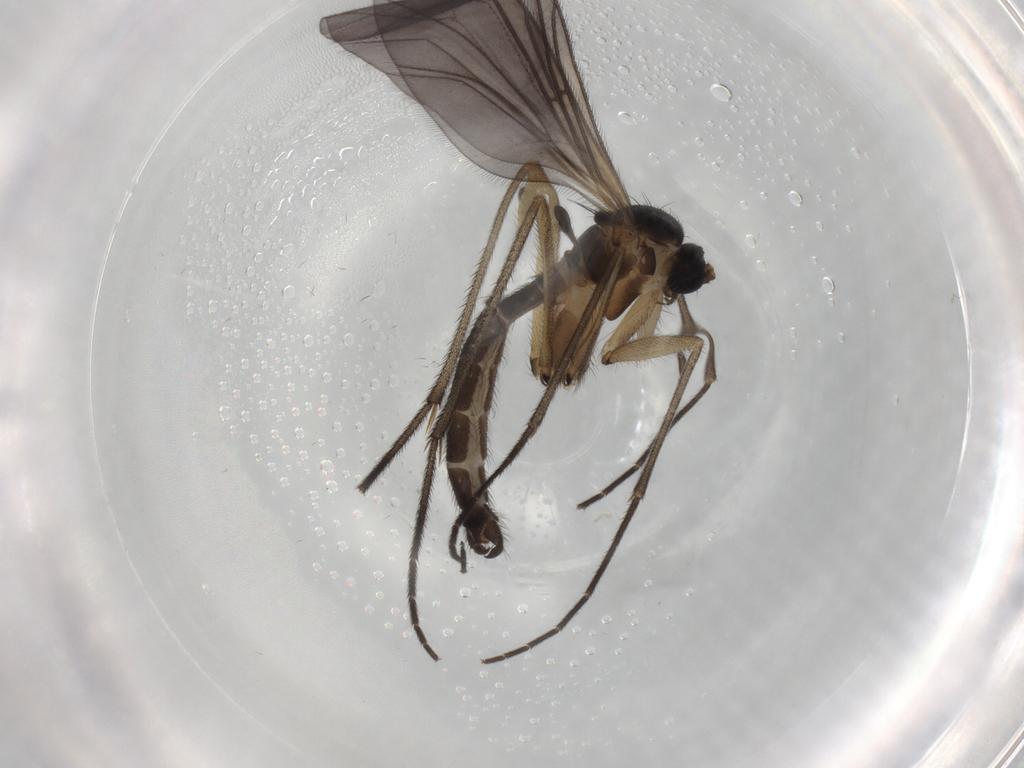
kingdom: Animalia
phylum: Arthropoda
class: Insecta
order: Diptera
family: Sciaridae
